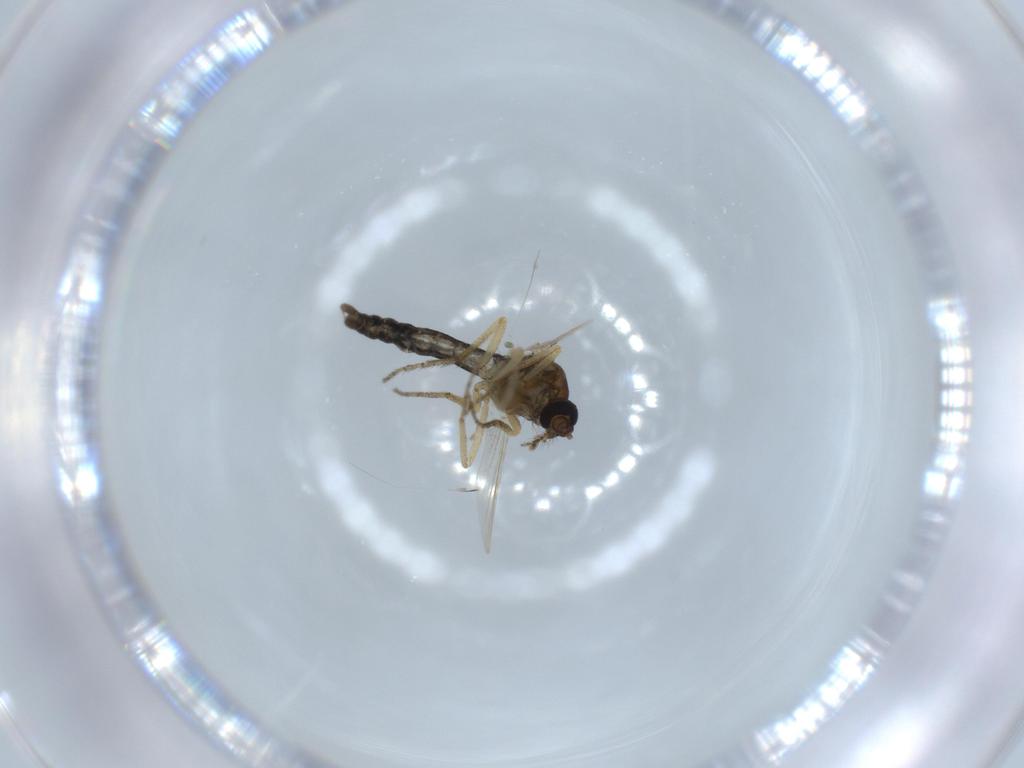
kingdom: Animalia
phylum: Arthropoda
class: Insecta
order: Diptera
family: Ceratopogonidae
